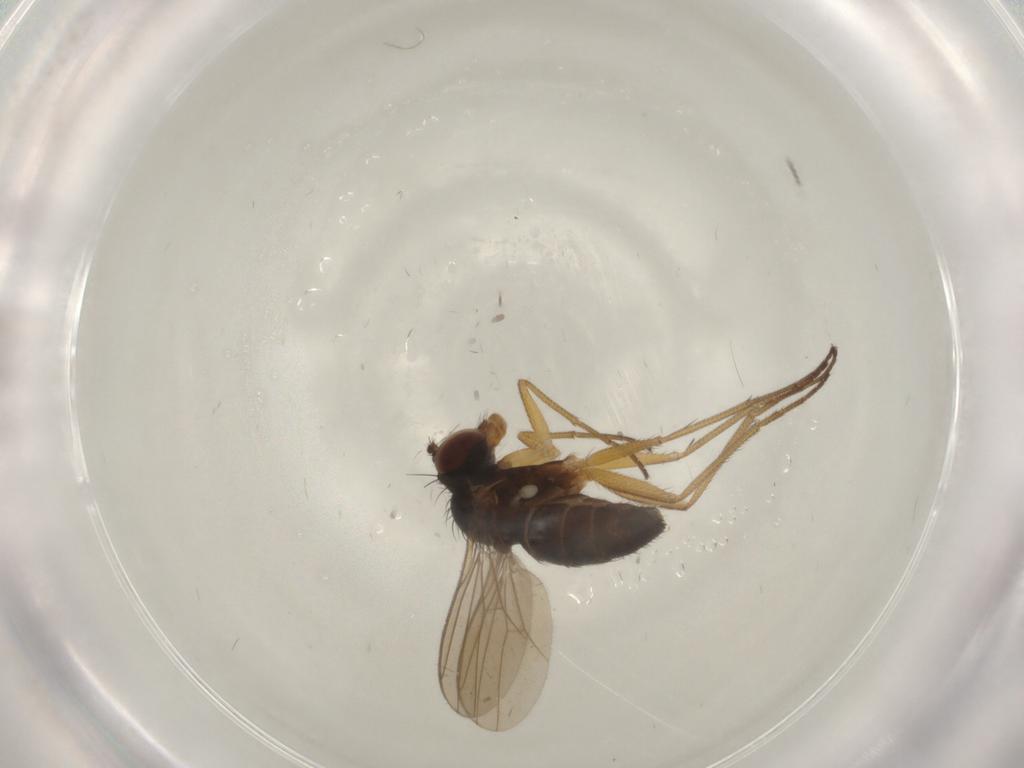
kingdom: Animalia
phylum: Arthropoda
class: Insecta
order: Diptera
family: Dolichopodidae
